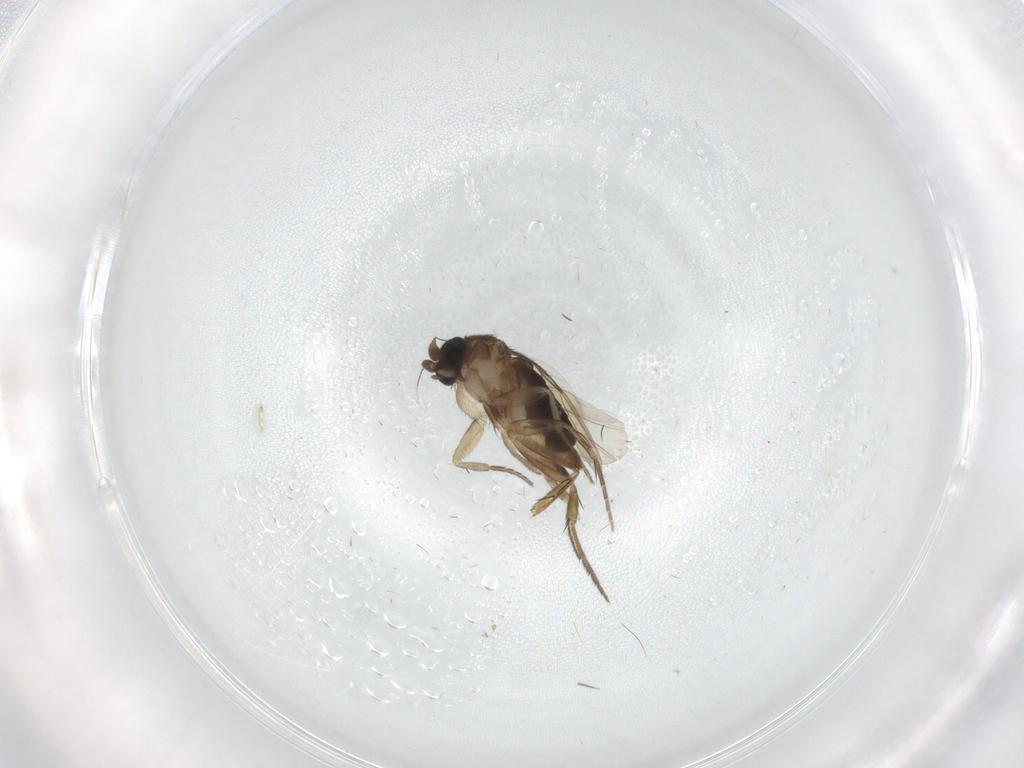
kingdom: Animalia
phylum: Arthropoda
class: Insecta
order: Diptera
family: Phoridae
